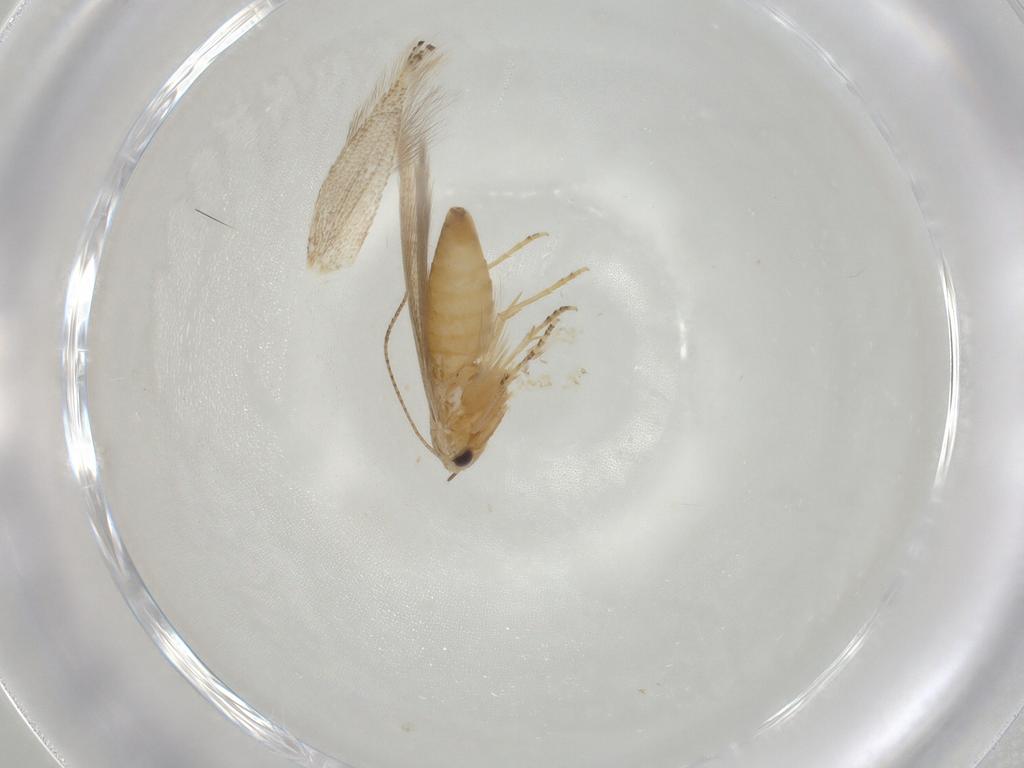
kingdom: Animalia
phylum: Arthropoda
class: Insecta
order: Lepidoptera
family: Bucculatricidae
